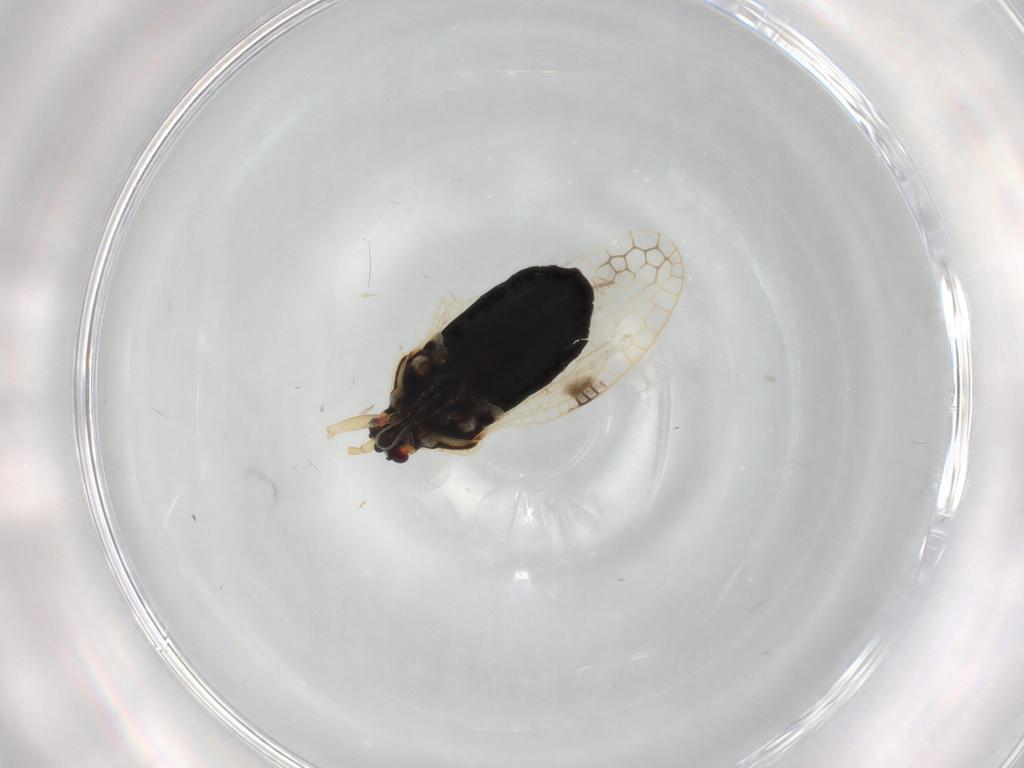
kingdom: Animalia
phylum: Arthropoda
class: Insecta
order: Hemiptera
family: Tingidae
